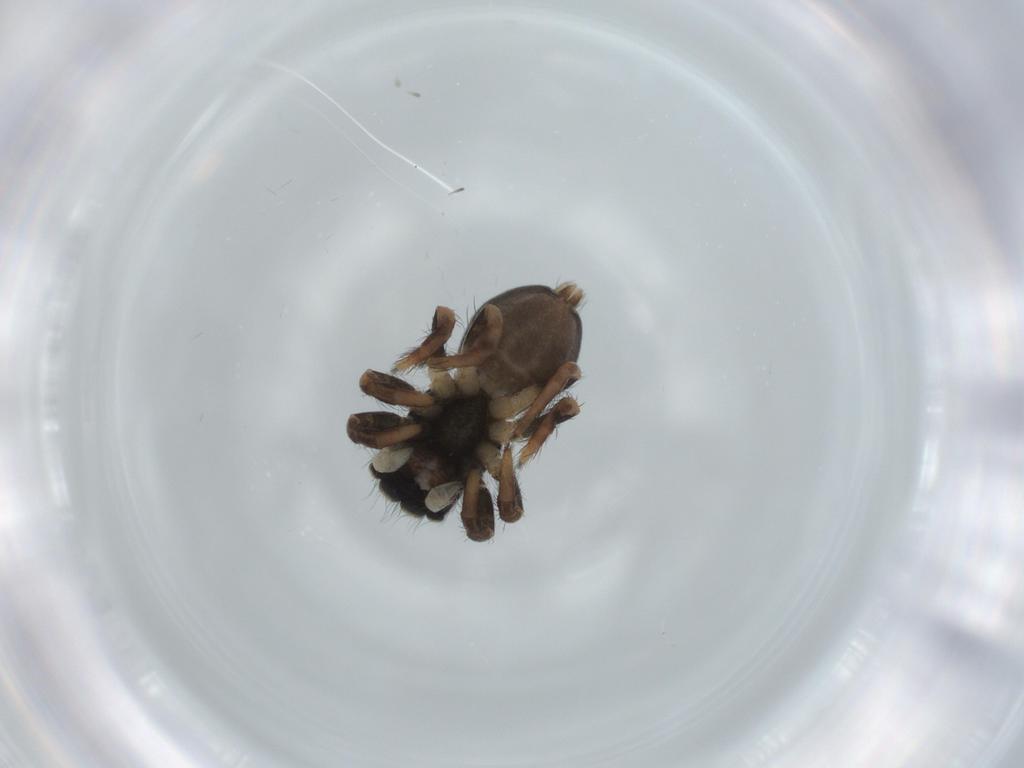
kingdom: Animalia
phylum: Arthropoda
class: Arachnida
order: Araneae
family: Salticidae
